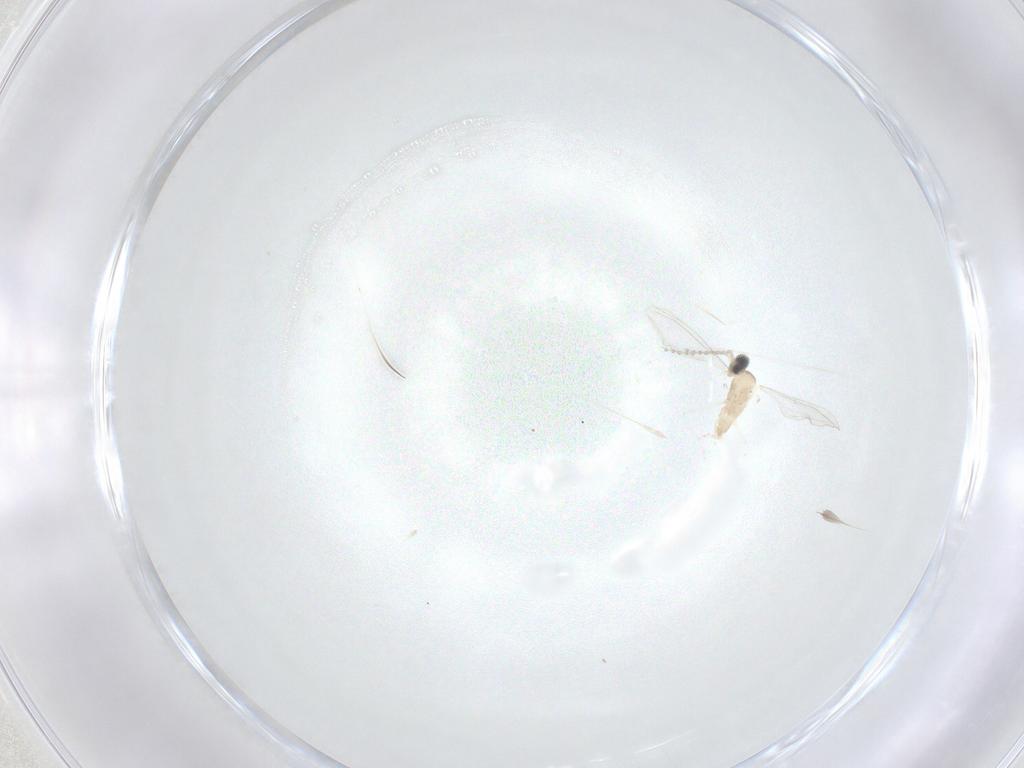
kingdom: Animalia
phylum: Arthropoda
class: Insecta
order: Diptera
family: Cecidomyiidae
